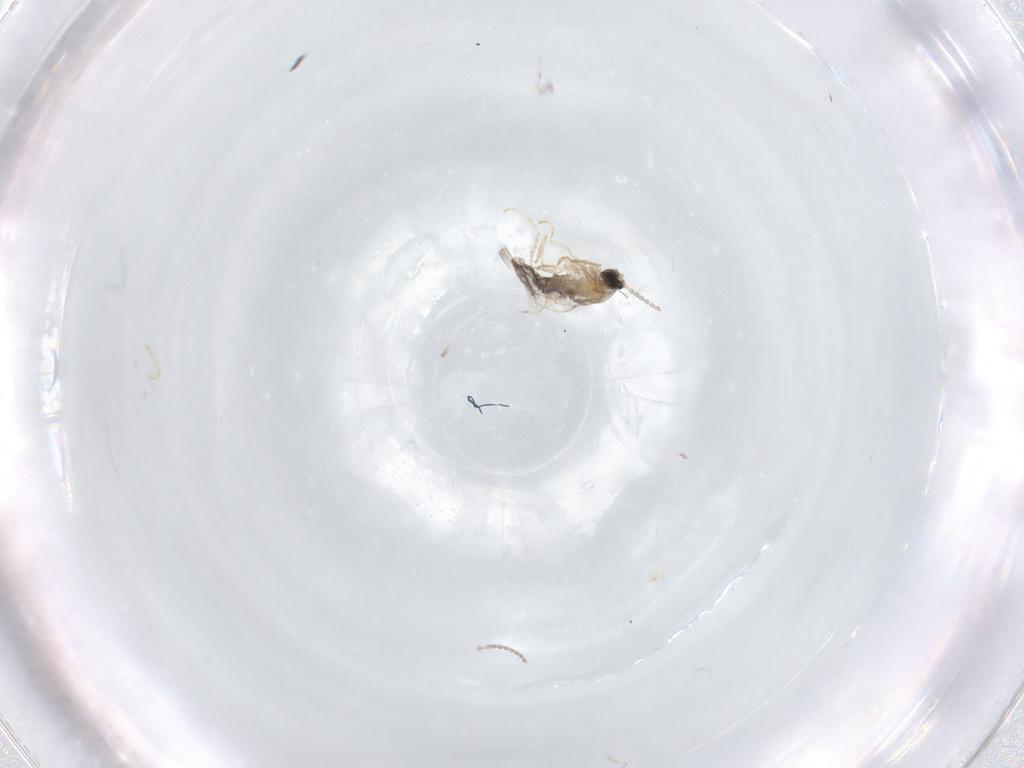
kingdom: Animalia
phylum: Arthropoda
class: Insecta
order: Diptera
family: Cecidomyiidae
